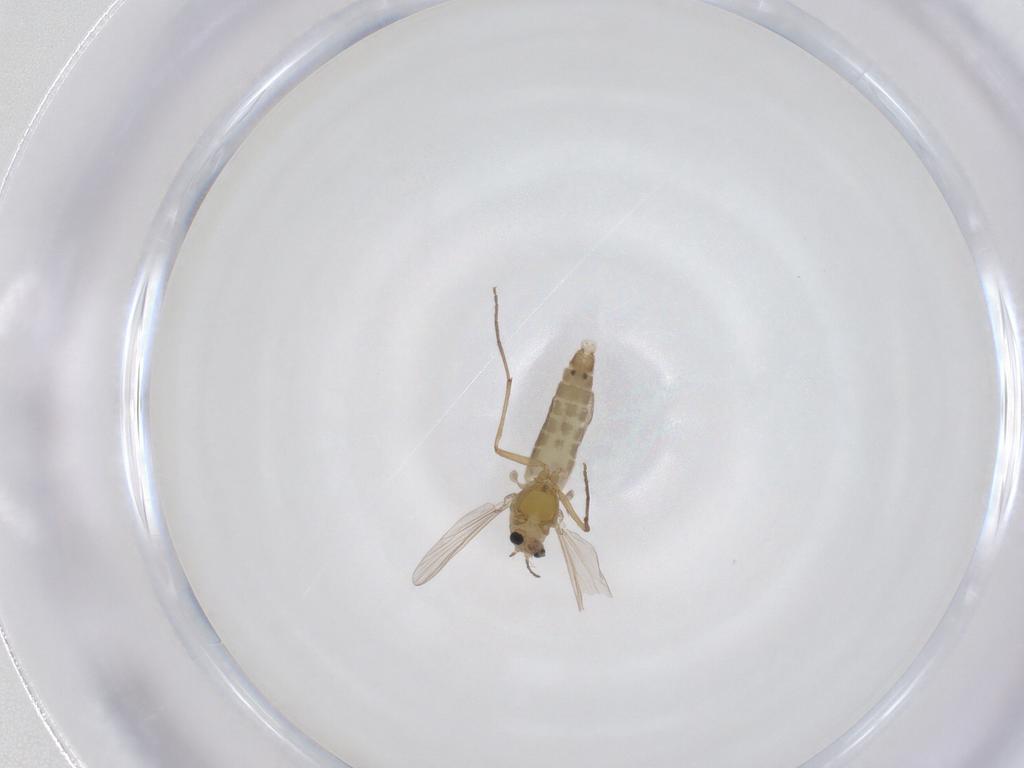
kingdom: Animalia
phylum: Arthropoda
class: Insecta
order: Diptera
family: Chironomidae
